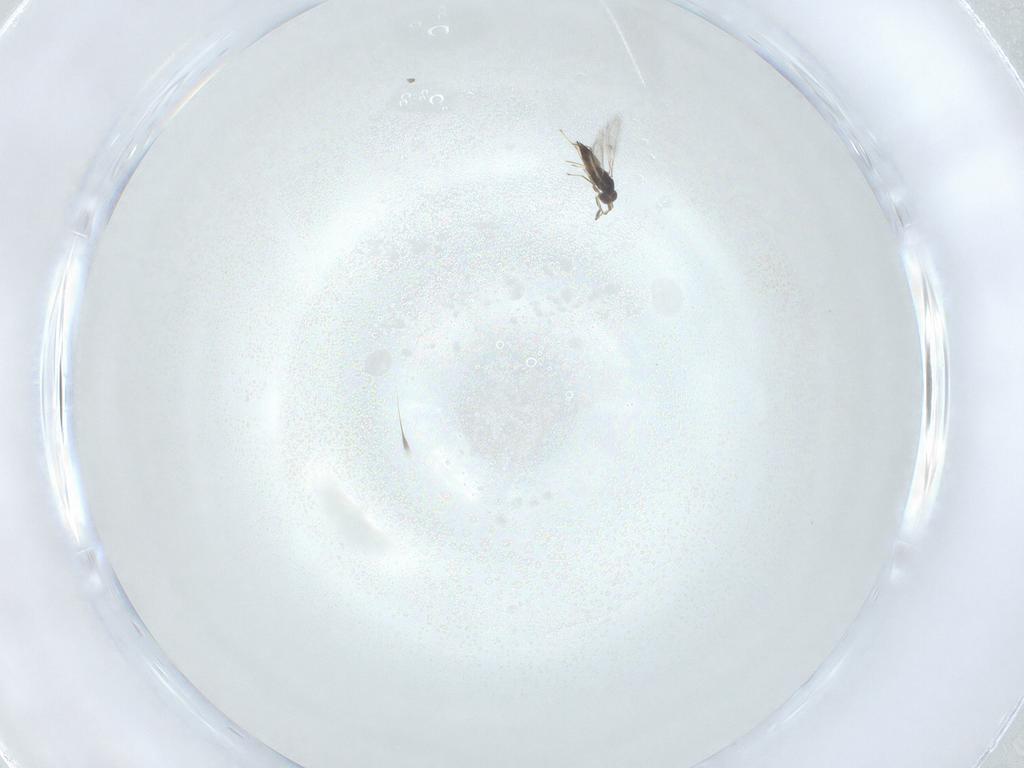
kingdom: Animalia
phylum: Arthropoda
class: Insecta
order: Hymenoptera
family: Mymaridae
